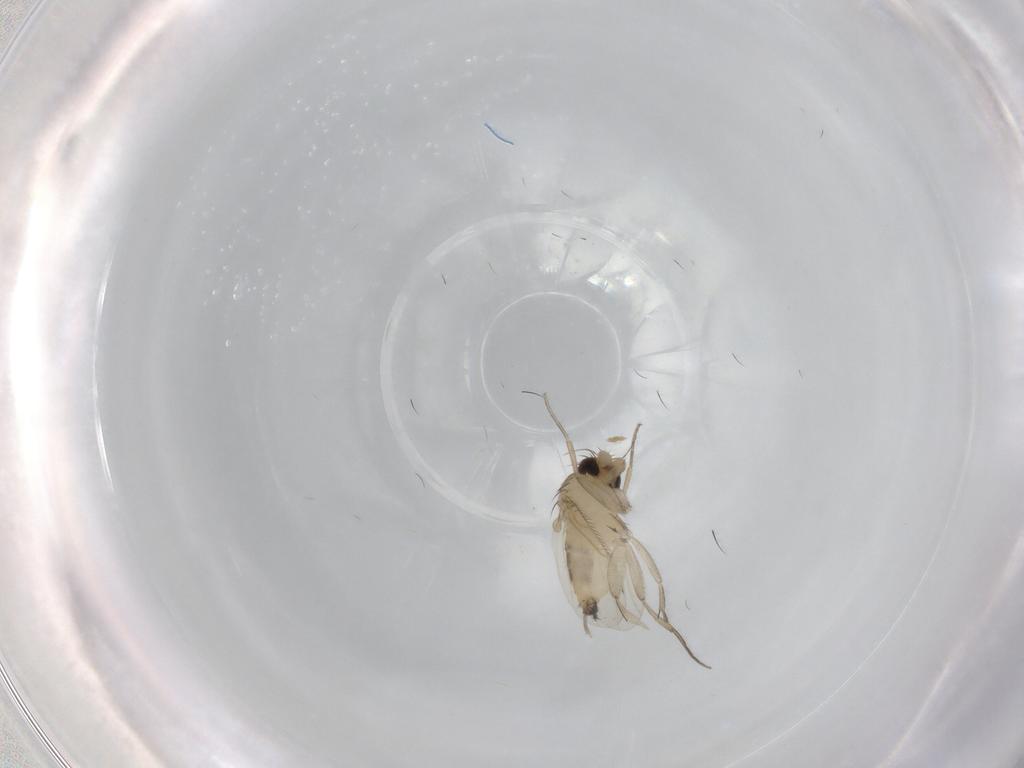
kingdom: Animalia
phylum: Arthropoda
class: Insecta
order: Diptera
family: Phoridae
